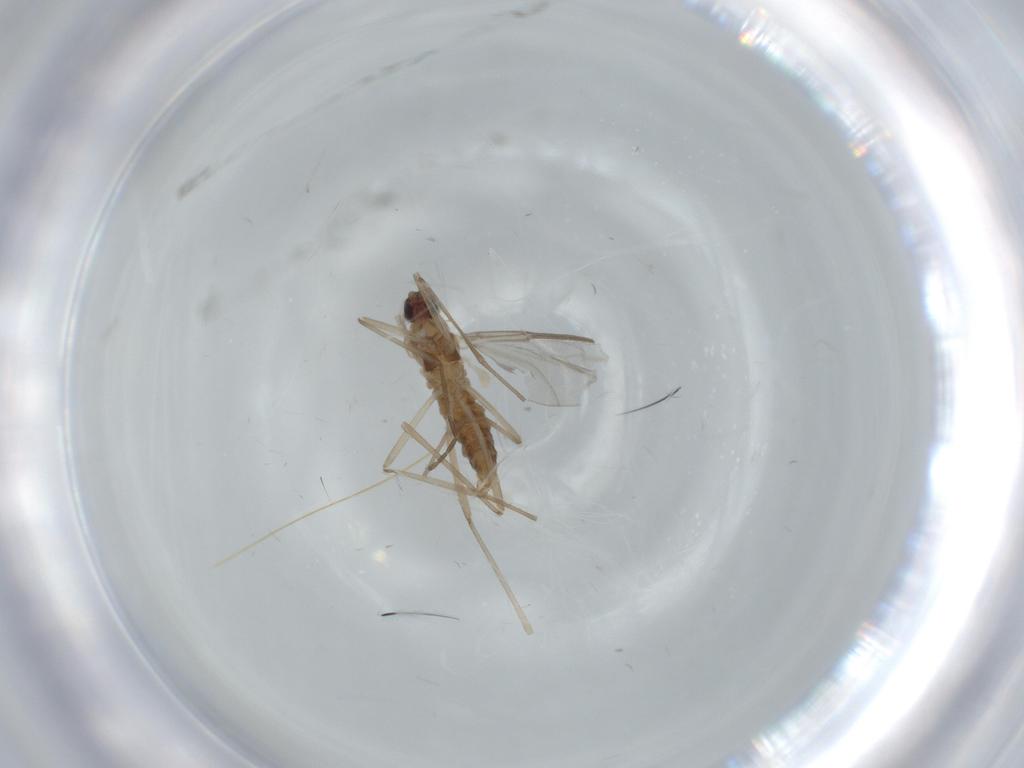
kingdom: Animalia
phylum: Arthropoda
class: Insecta
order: Diptera
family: Cecidomyiidae
